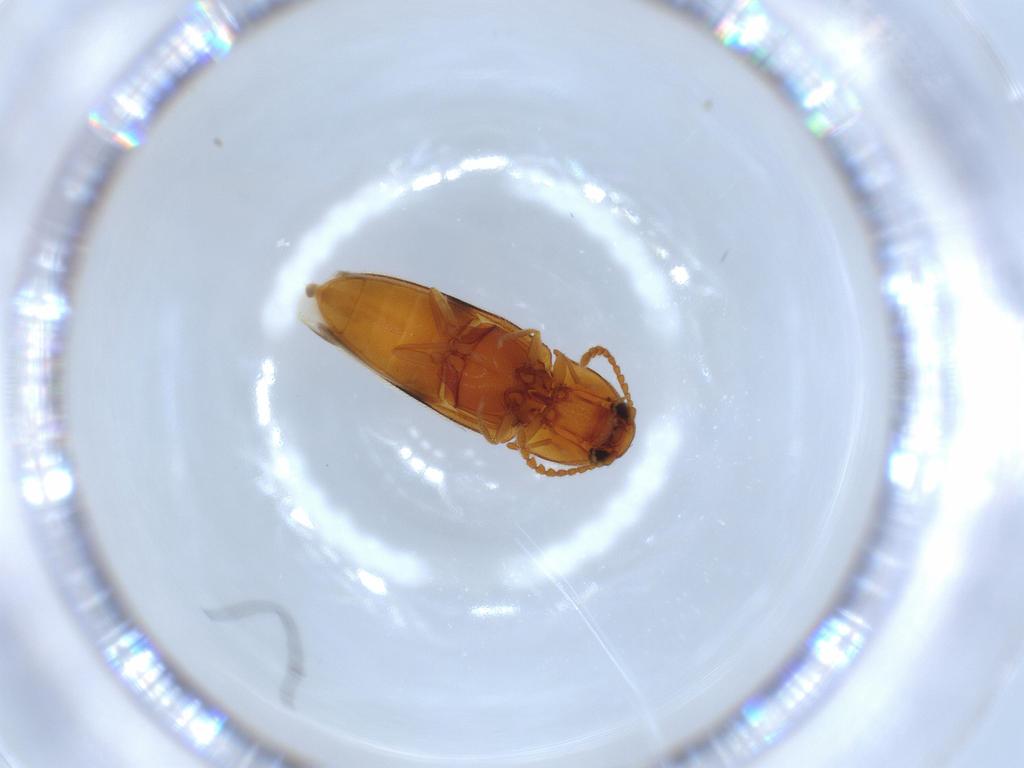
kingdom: Animalia
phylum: Arthropoda
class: Insecta
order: Coleoptera
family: Elateridae
